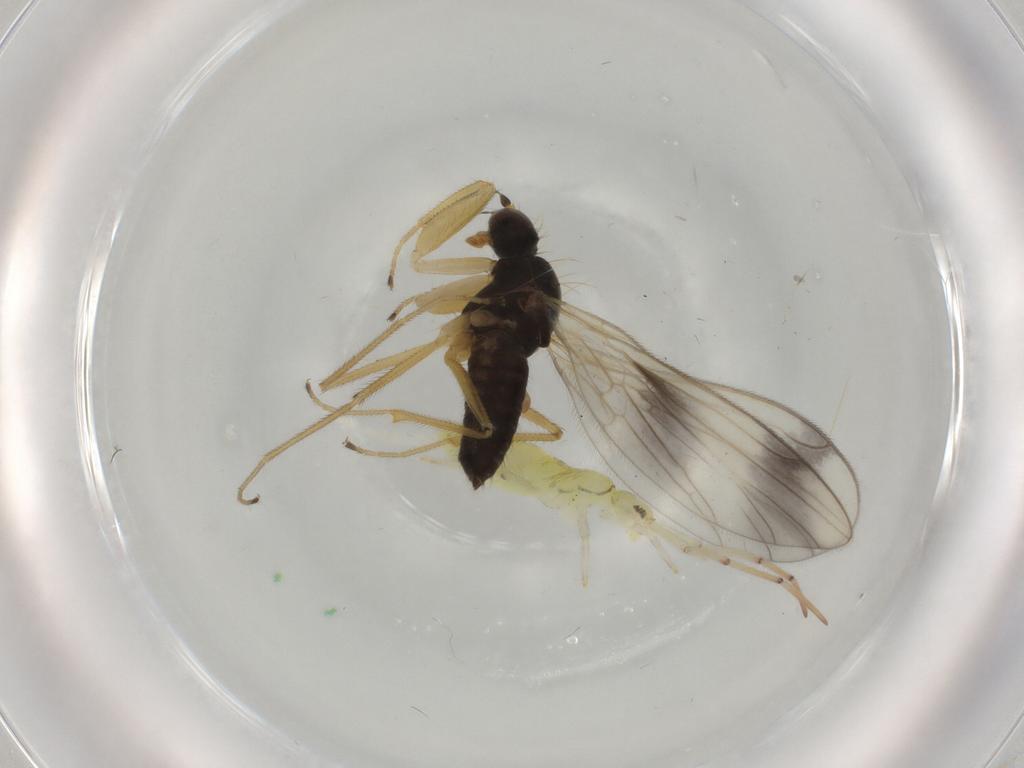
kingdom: Animalia
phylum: Arthropoda
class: Insecta
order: Diptera
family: Empididae
